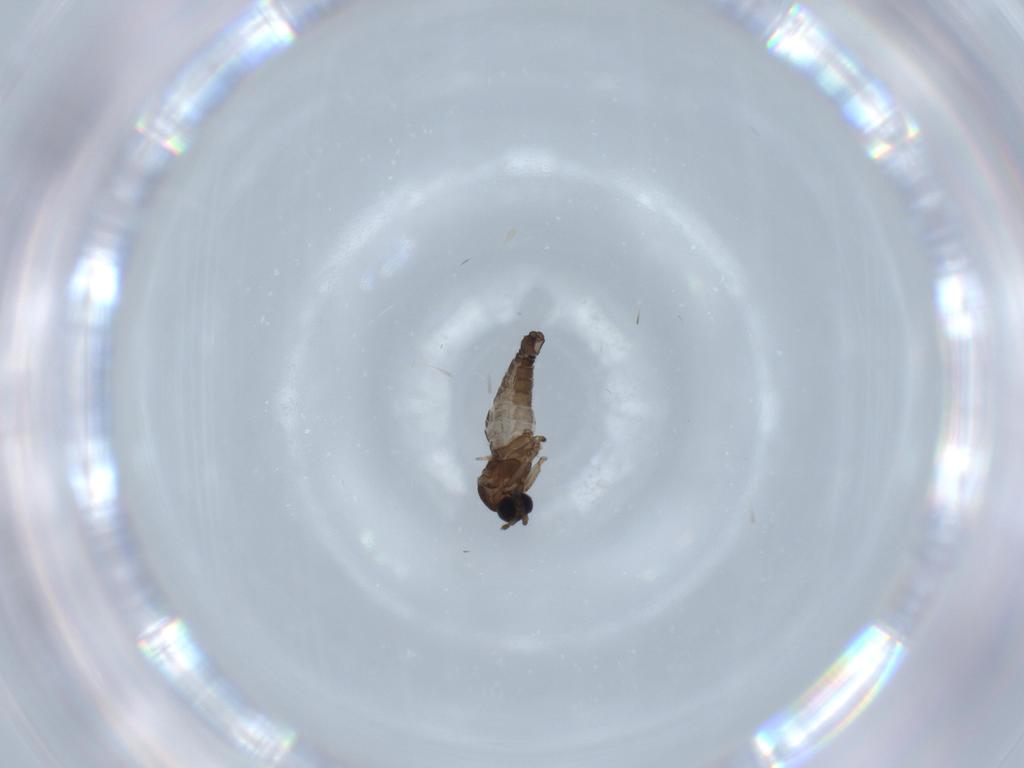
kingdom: Animalia
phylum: Arthropoda
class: Insecta
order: Diptera
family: Sciaridae
